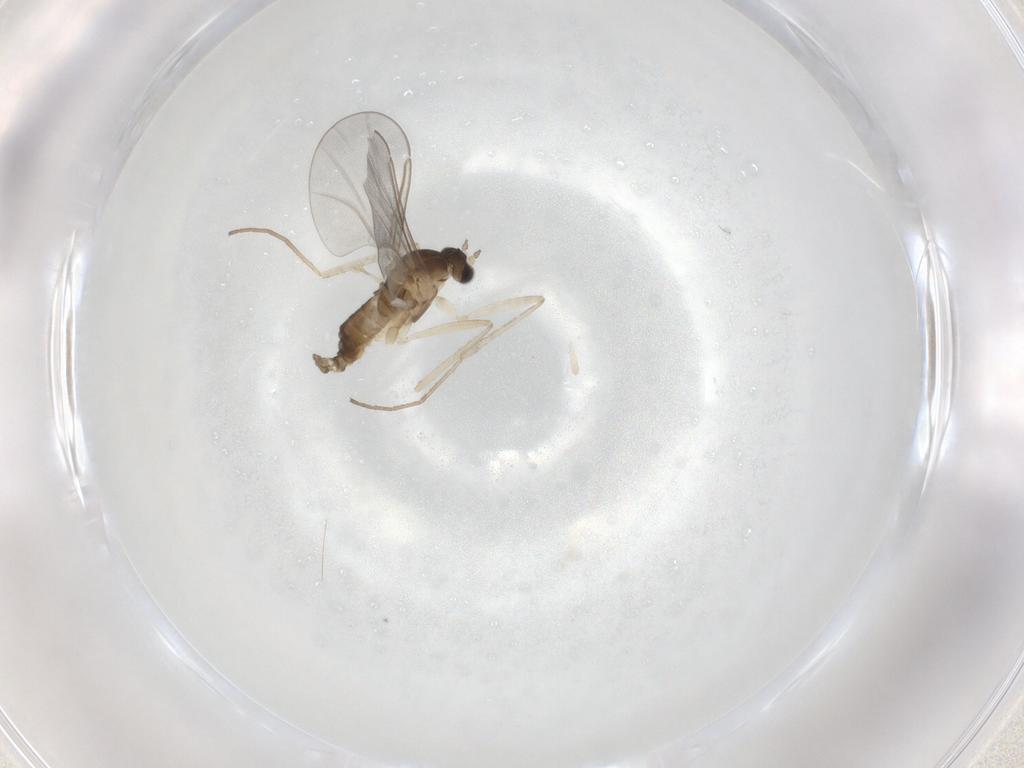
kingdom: Animalia
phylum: Arthropoda
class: Insecta
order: Diptera
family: Cecidomyiidae
